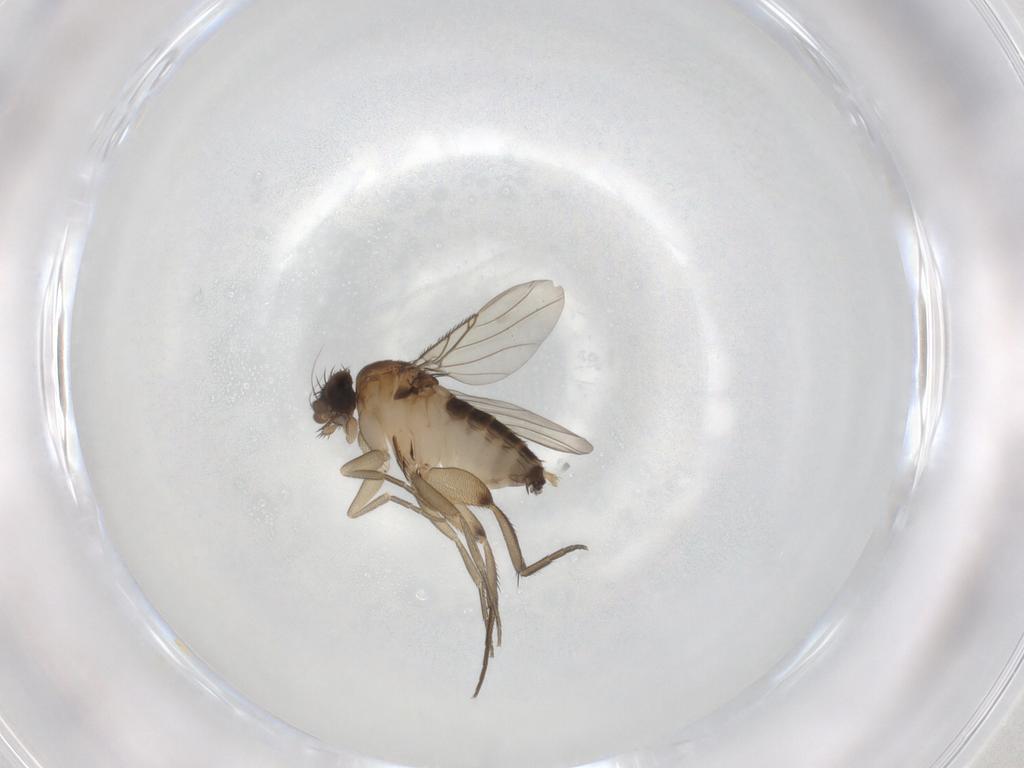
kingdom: Animalia
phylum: Arthropoda
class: Insecta
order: Diptera
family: Phoridae
